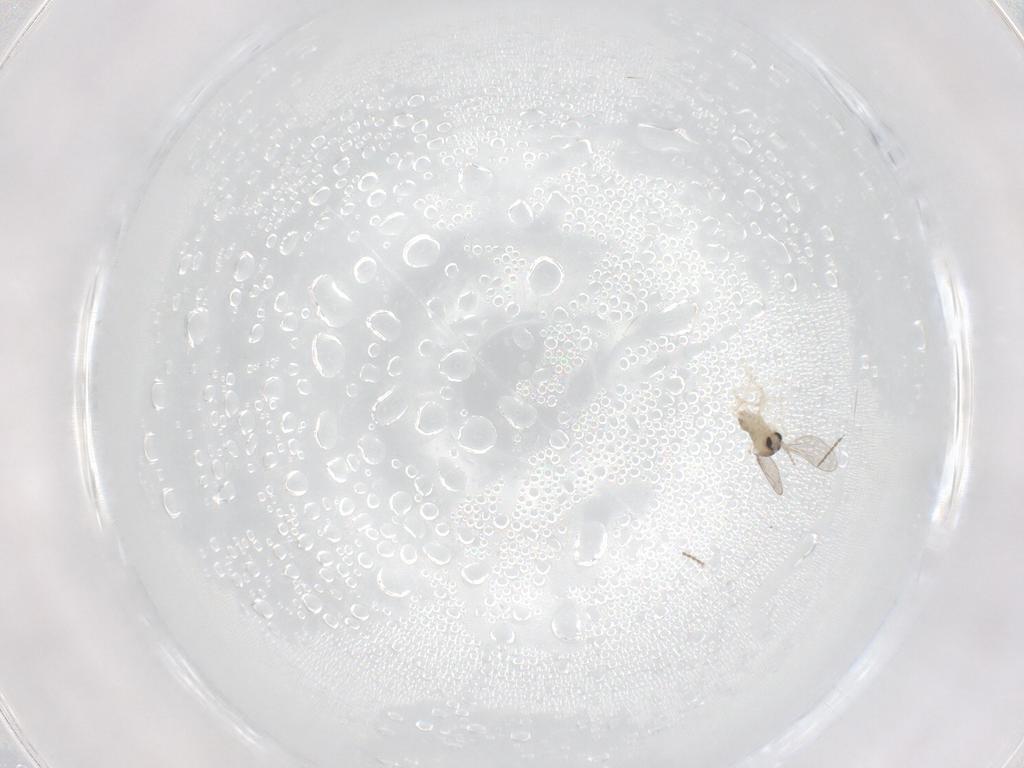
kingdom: Animalia
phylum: Arthropoda
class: Insecta
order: Diptera
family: Cecidomyiidae
